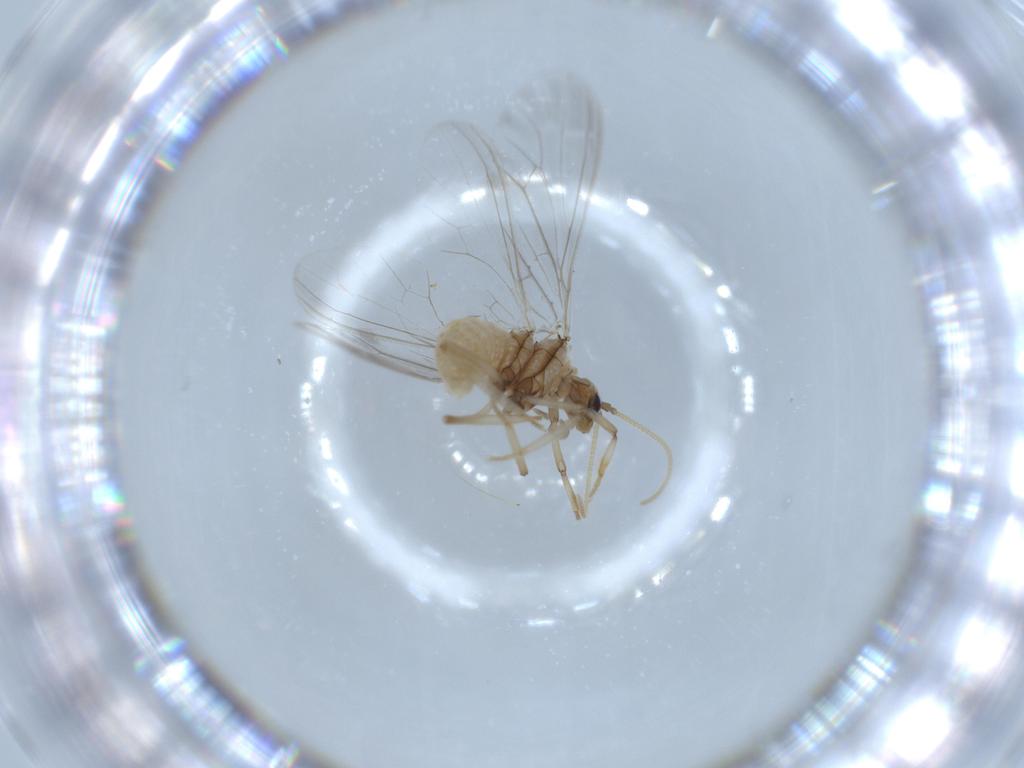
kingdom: Animalia
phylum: Arthropoda
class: Insecta
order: Neuroptera
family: Coniopterygidae
